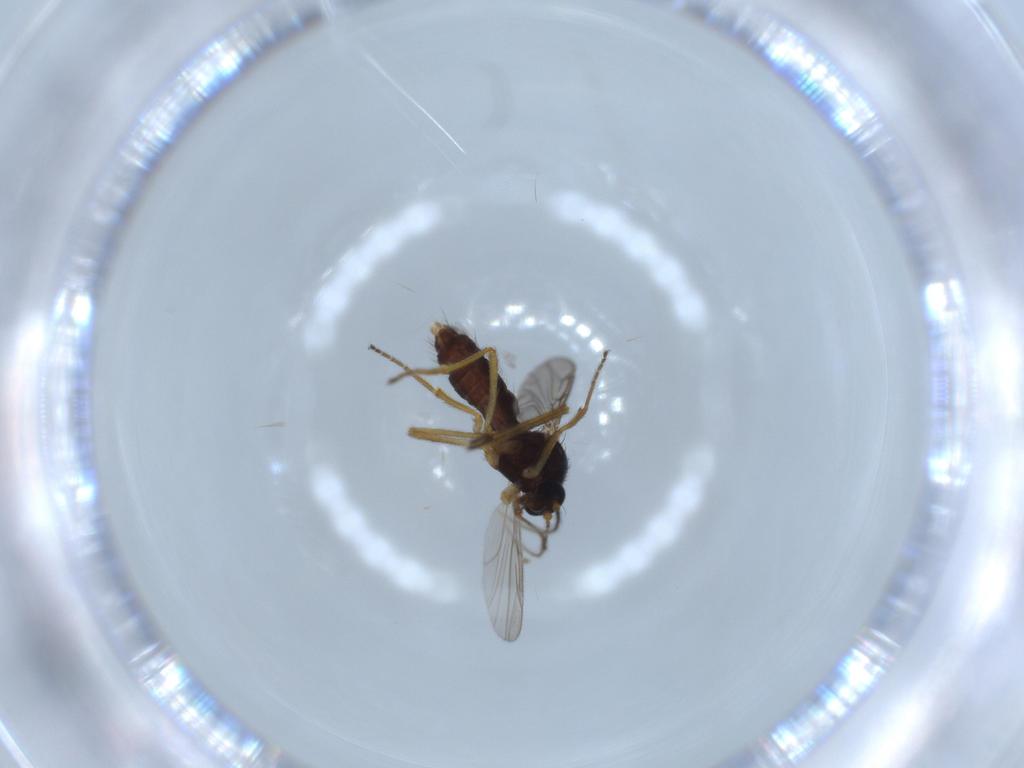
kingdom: Animalia
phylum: Arthropoda
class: Insecta
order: Diptera
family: Ceratopogonidae
